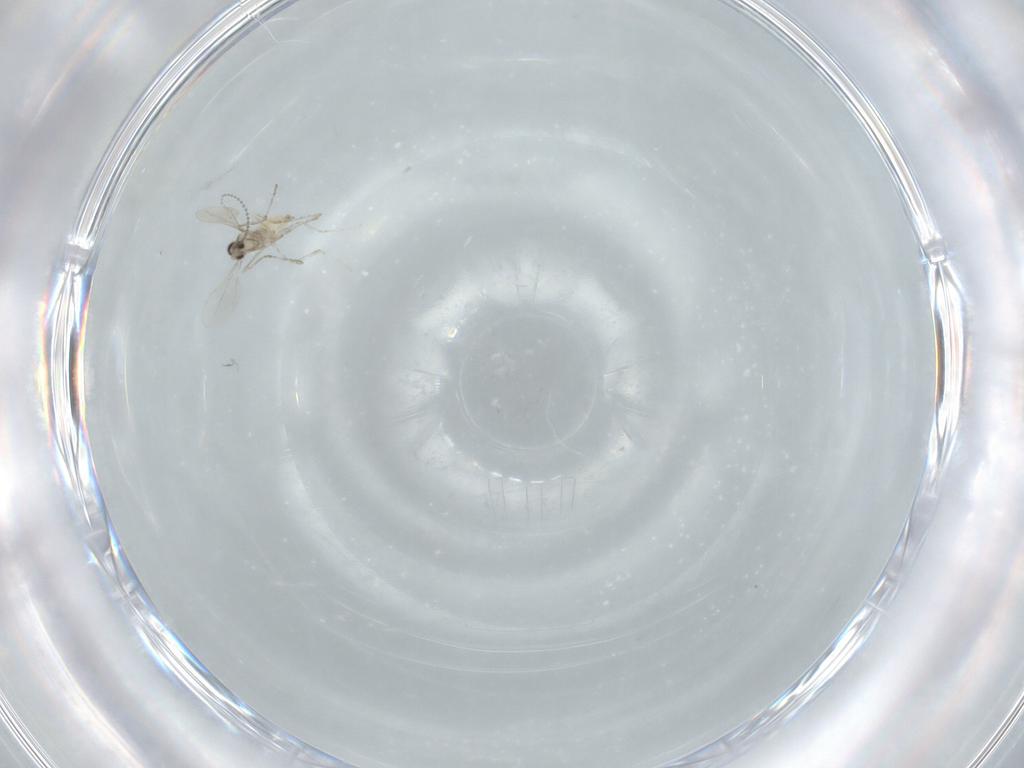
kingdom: Animalia
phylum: Arthropoda
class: Insecta
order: Diptera
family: Cecidomyiidae
